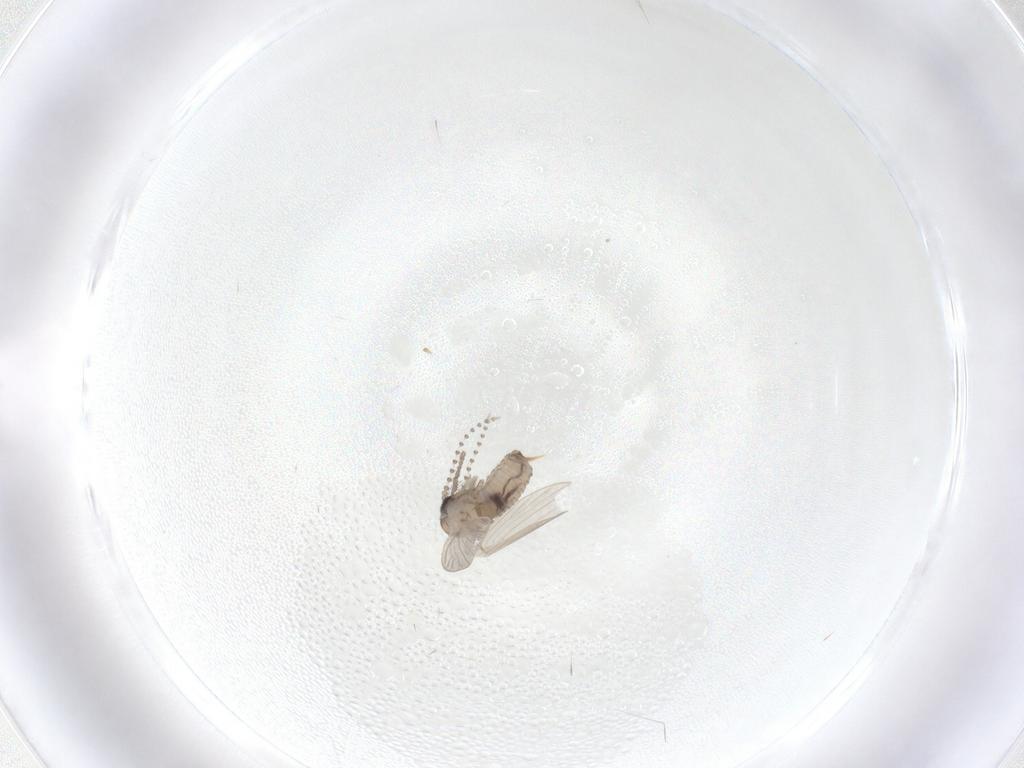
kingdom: Animalia
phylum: Arthropoda
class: Insecta
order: Diptera
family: Psychodidae
